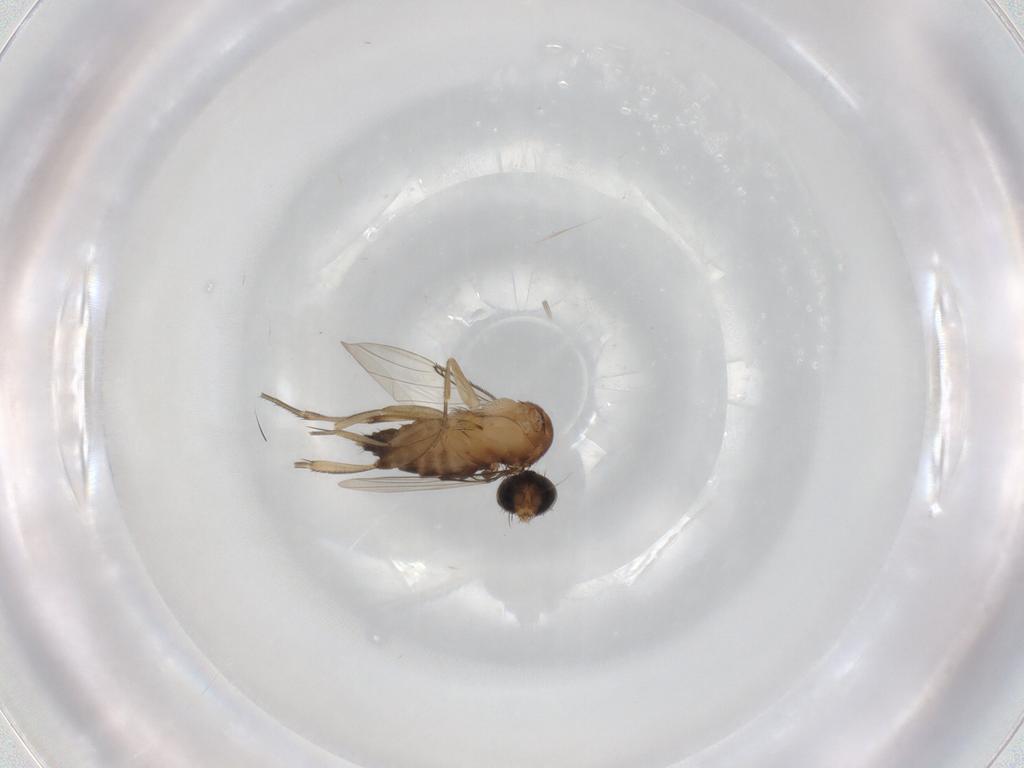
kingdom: Animalia
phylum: Arthropoda
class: Insecta
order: Diptera
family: Phoridae
